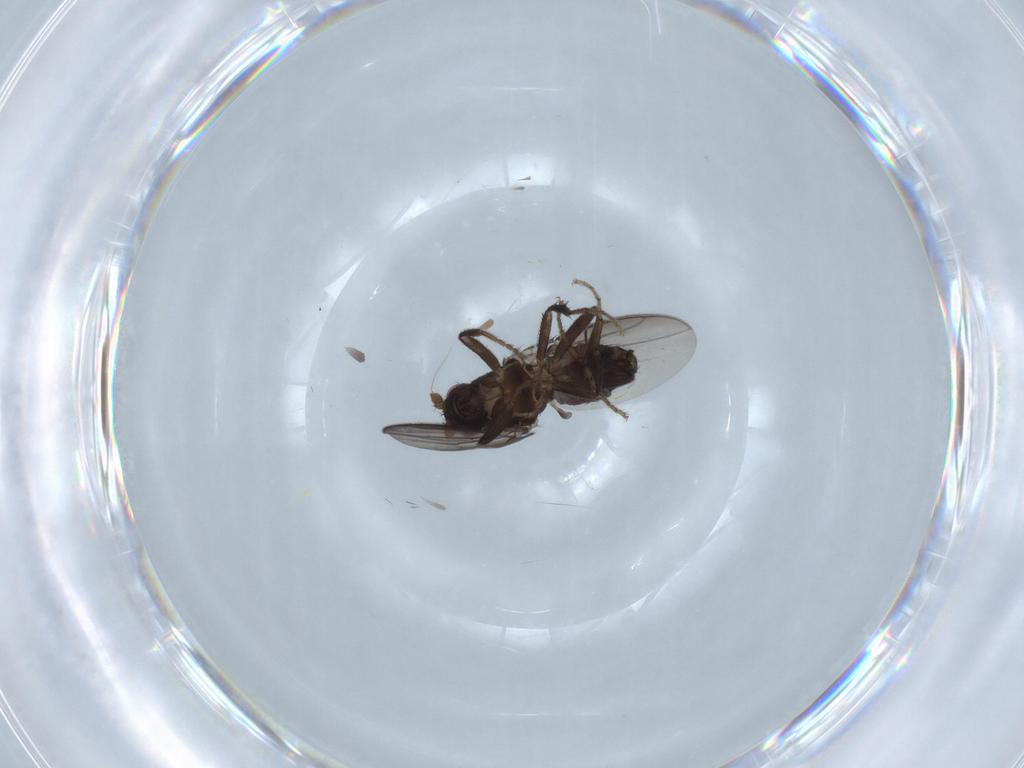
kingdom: Animalia
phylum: Arthropoda
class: Insecta
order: Diptera
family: Sphaeroceridae
